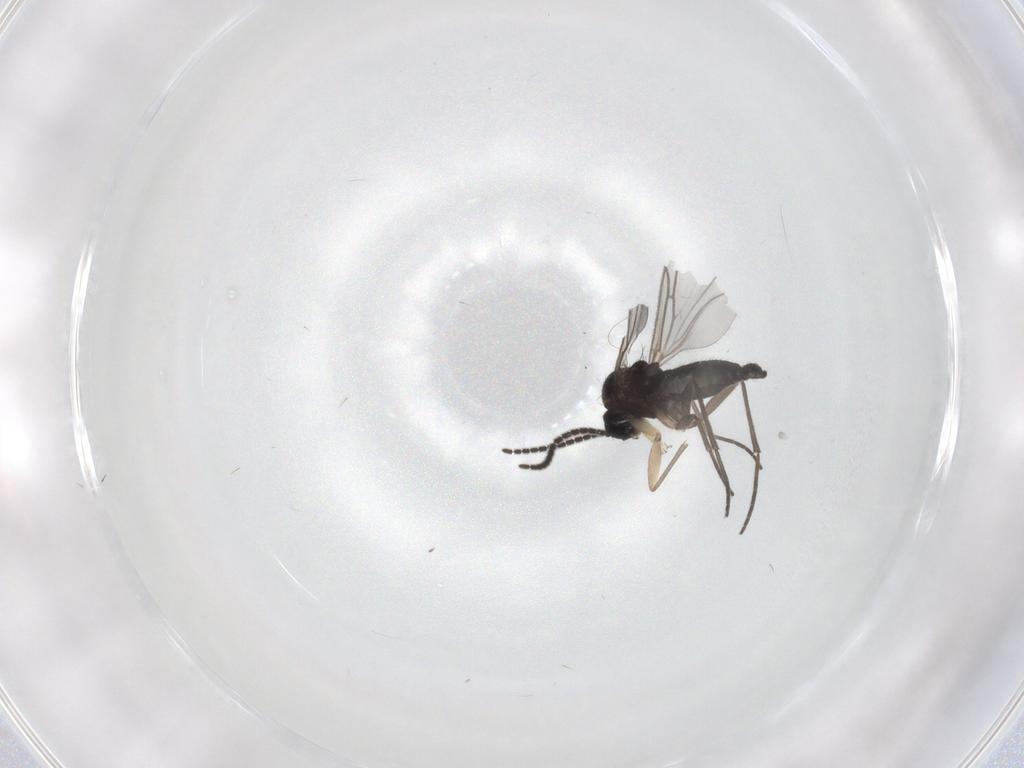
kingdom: Animalia
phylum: Arthropoda
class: Insecta
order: Diptera
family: Sciaridae
